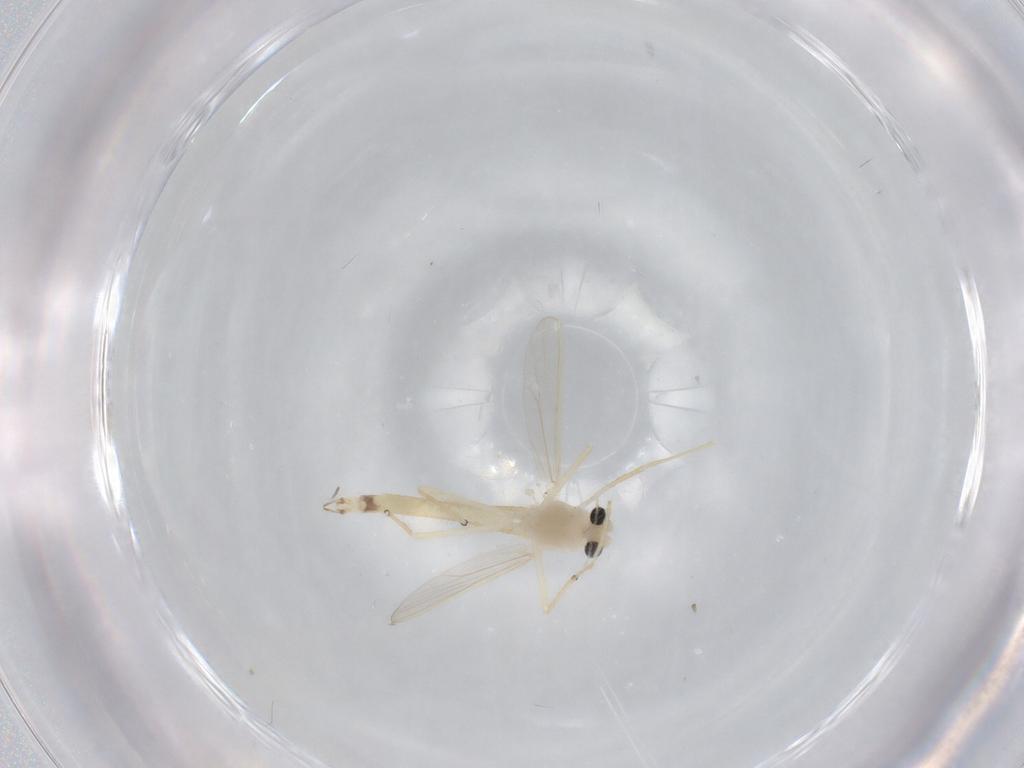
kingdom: Animalia
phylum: Arthropoda
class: Insecta
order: Diptera
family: Chironomidae
